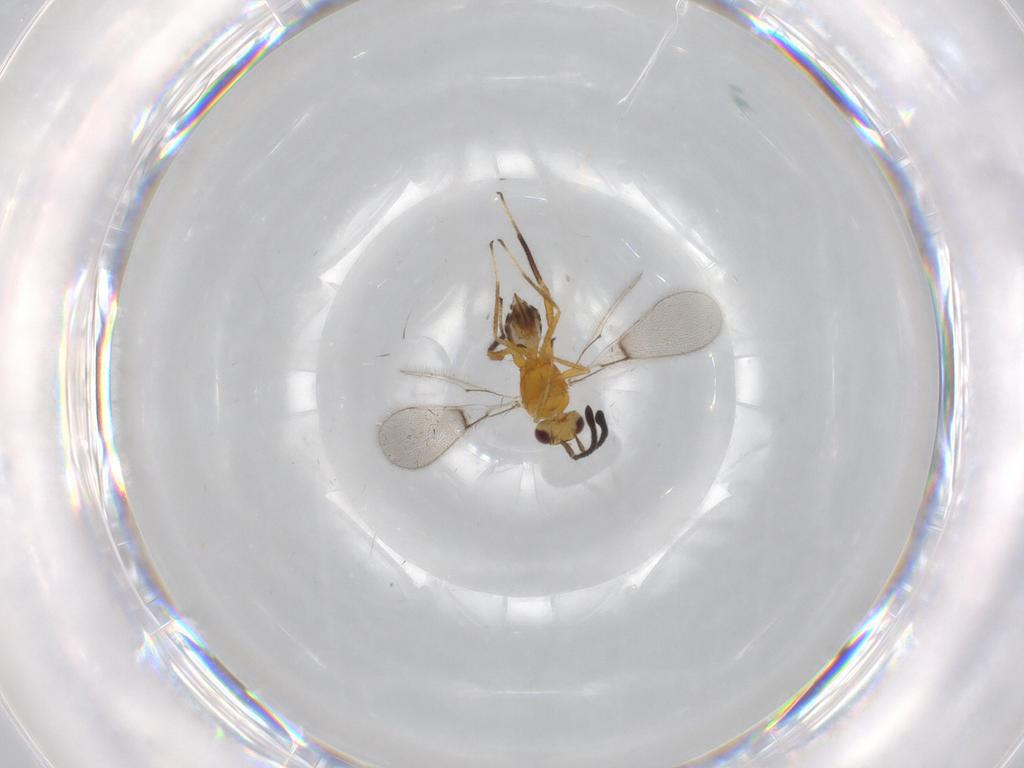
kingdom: Animalia
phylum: Arthropoda
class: Insecta
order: Hymenoptera
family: Mymaridae
